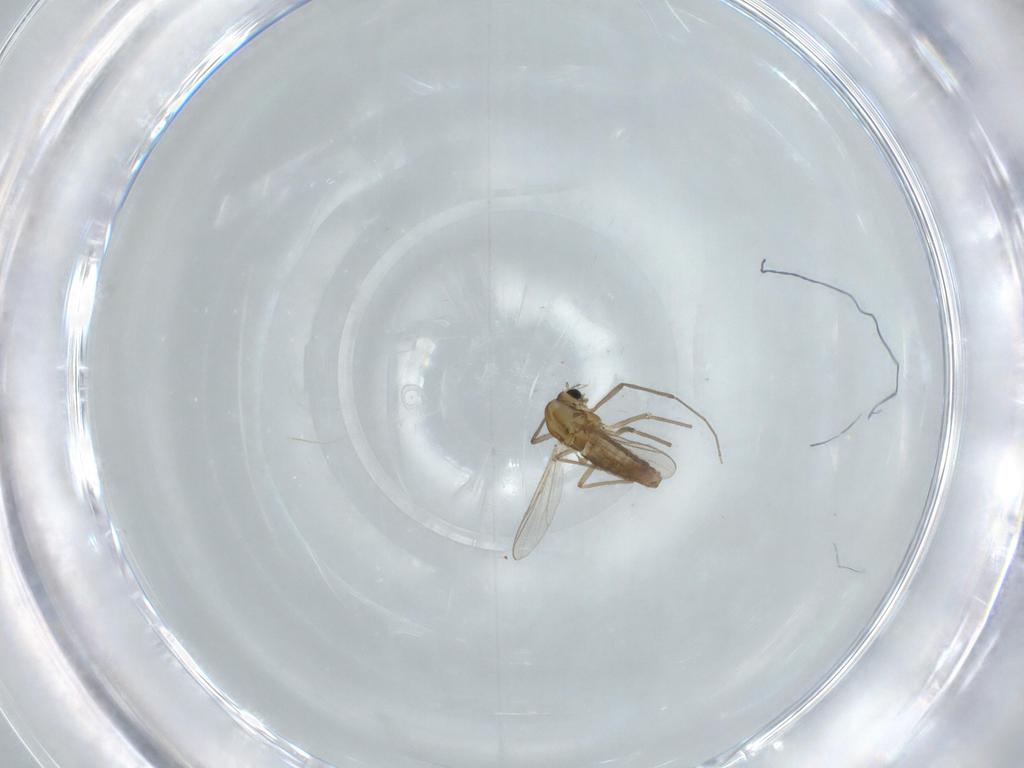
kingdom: Animalia
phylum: Arthropoda
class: Insecta
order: Diptera
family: Chironomidae
